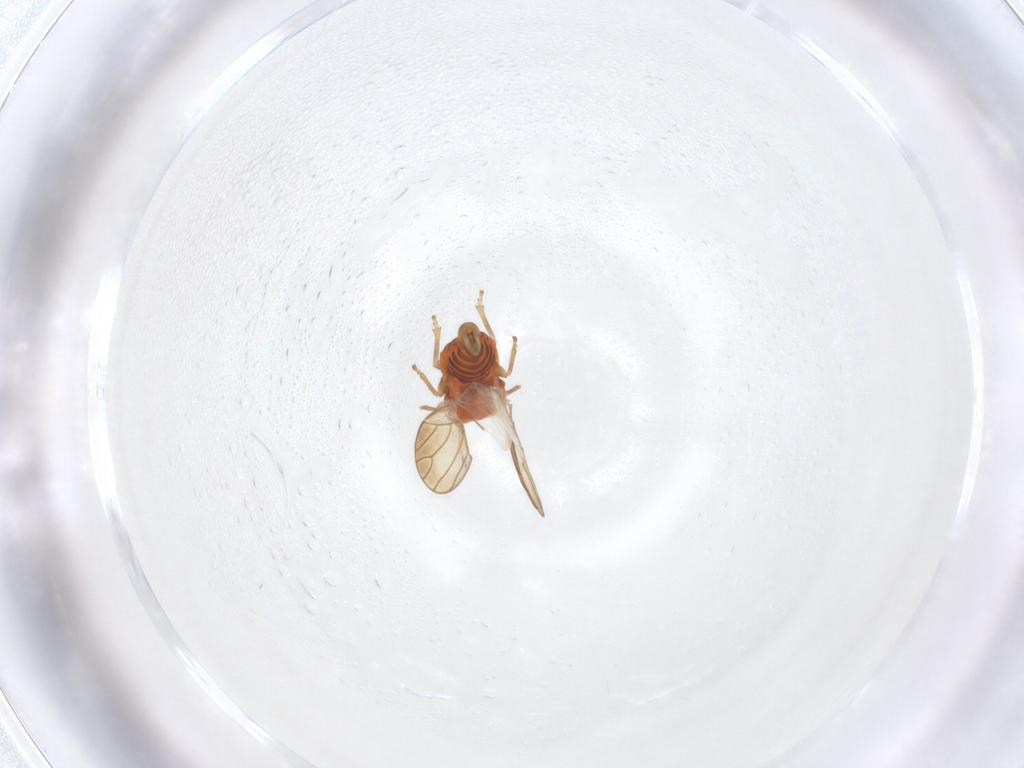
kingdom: Animalia
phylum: Arthropoda
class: Insecta
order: Hemiptera
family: Aphalaridae
